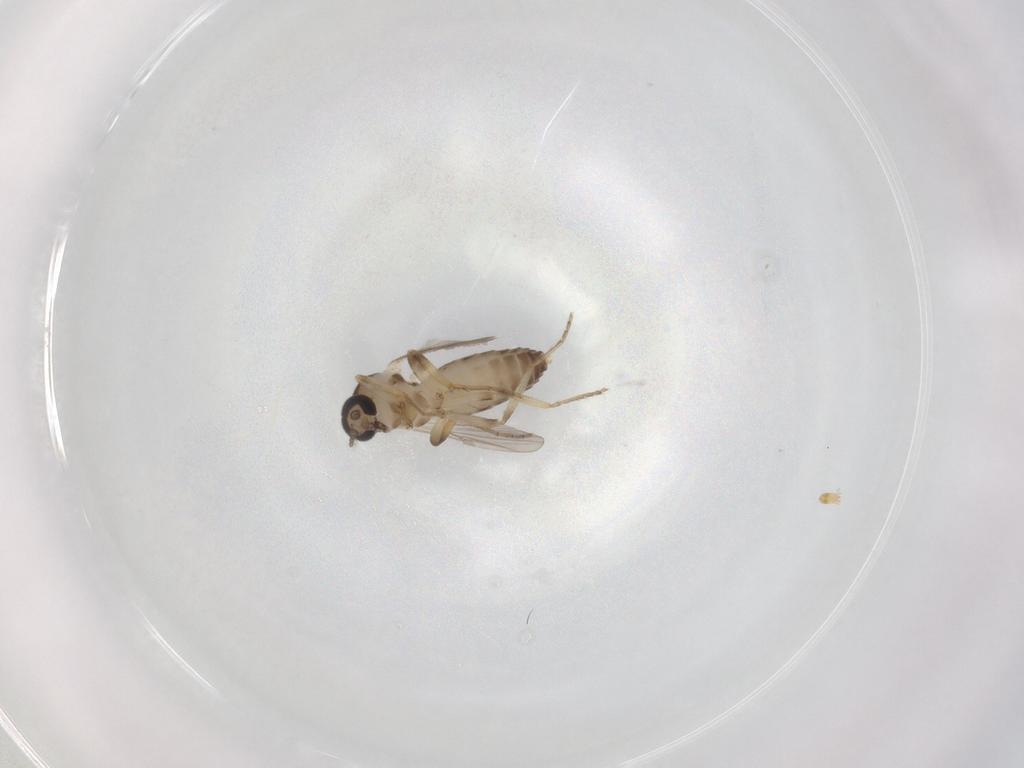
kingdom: Animalia
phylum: Arthropoda
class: Insecta
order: Diptera
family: Ceratopogonidae
